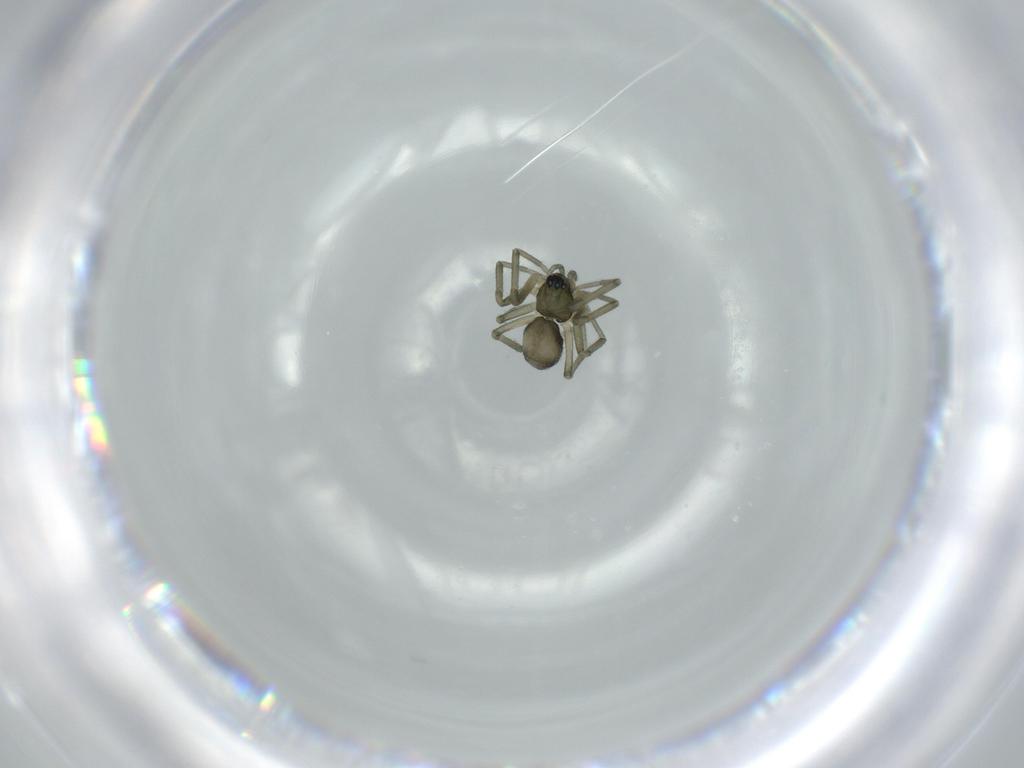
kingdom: Animalia
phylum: Arthropoda
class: Arachnida
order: Araneae
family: Linyphiidae
